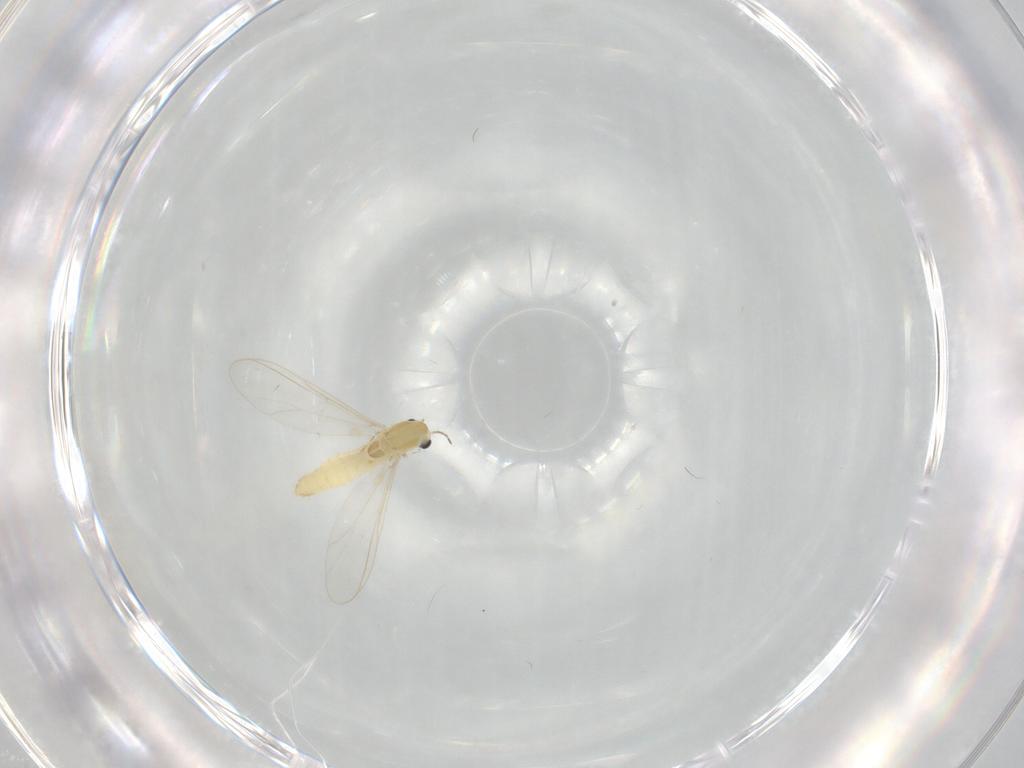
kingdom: Animalia
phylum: Arthropoda
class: Insecta
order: Diptera
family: Chironomidae
